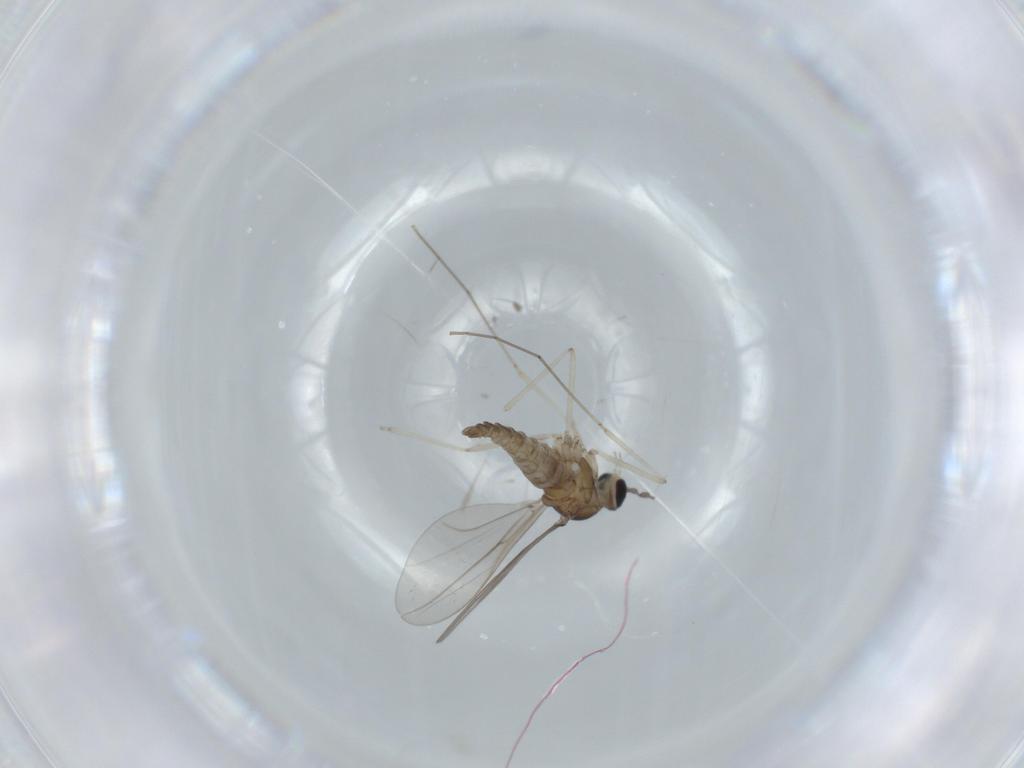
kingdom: Animalia
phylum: Arthropoda
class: Insecta
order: Diptera
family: Cecidomyiidae
